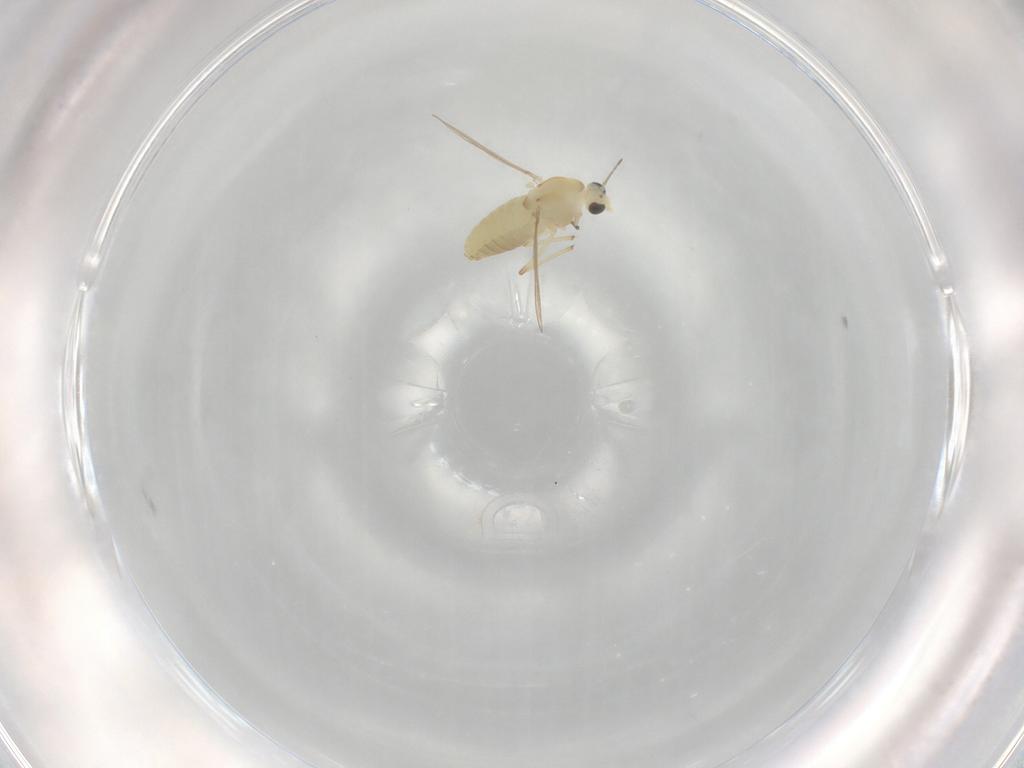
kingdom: Animalia
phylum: Arthropoda
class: Insecta
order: Diptera
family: Chironomidae
